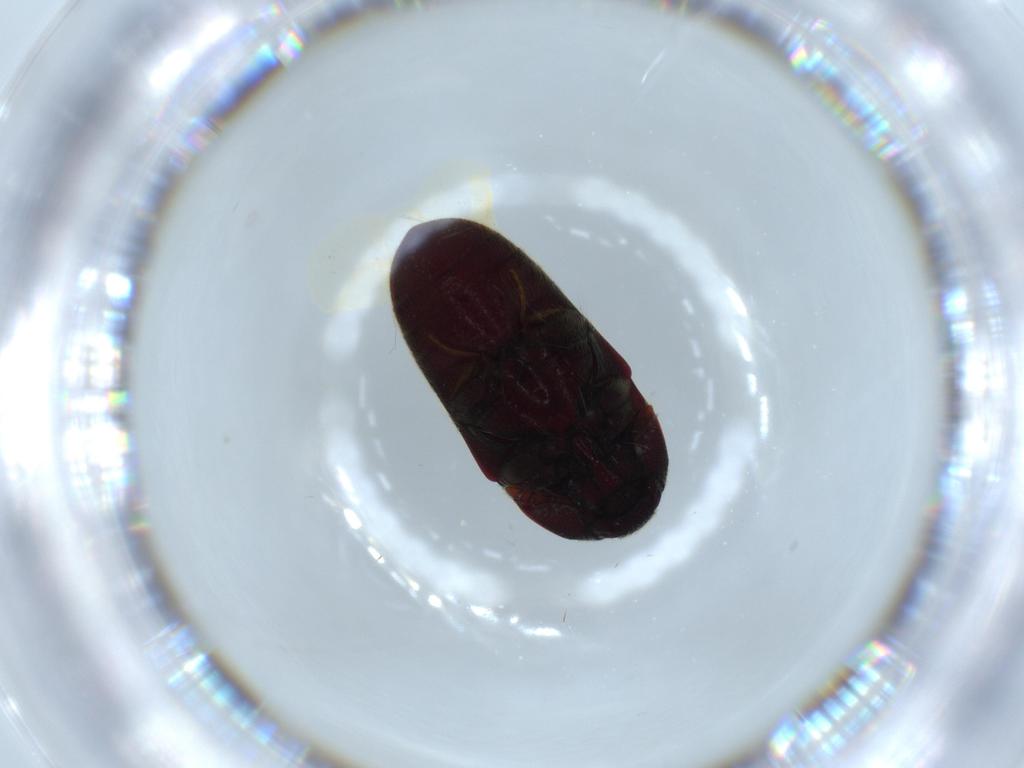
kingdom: Animalia
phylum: Arthropoda
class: Insecta
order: Coleoptera
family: Throscidae
